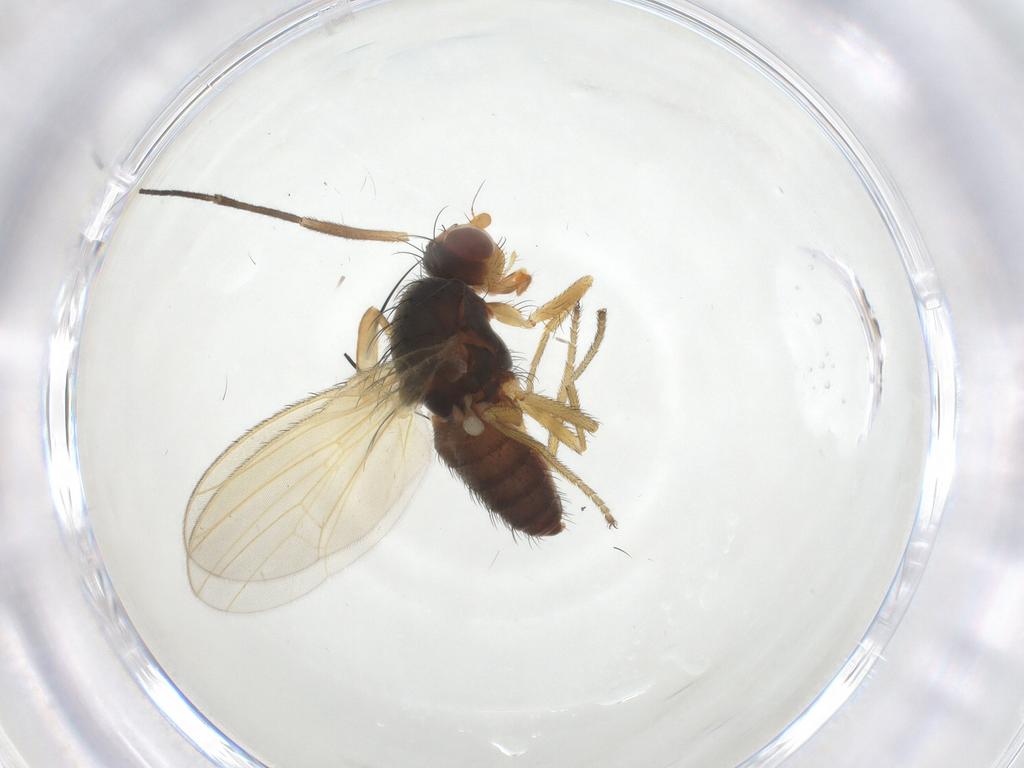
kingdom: Animalia
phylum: Arthropoda
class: Insecta
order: Diptera
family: Heleomyzidae
